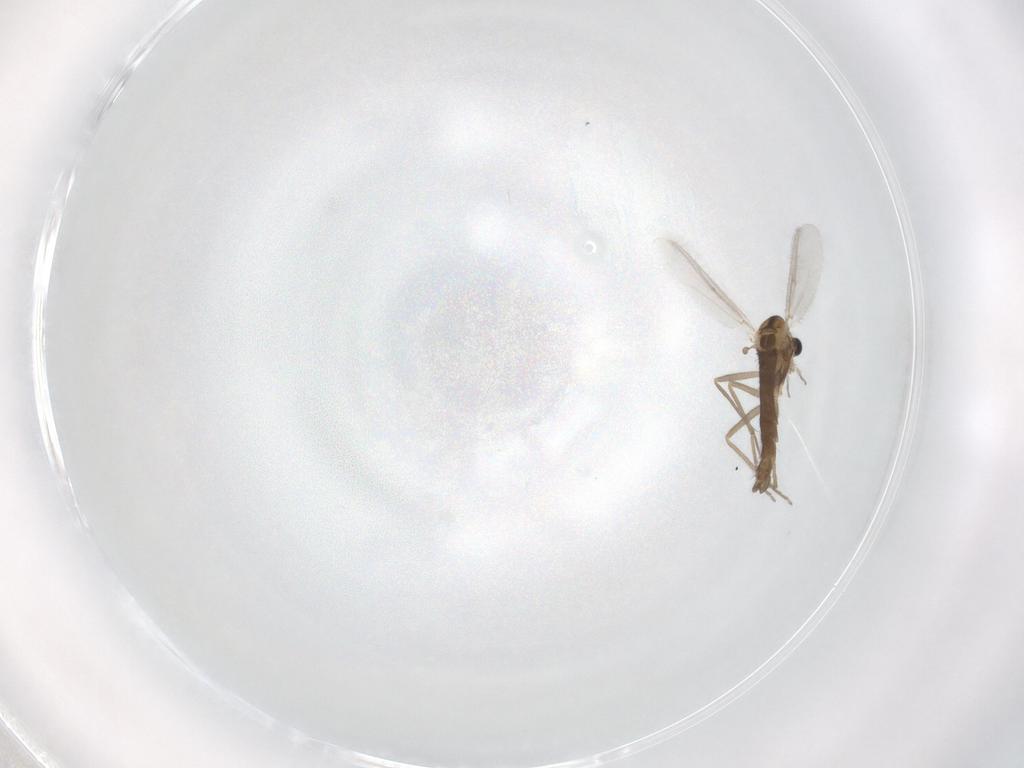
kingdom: Animalia
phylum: Arthropoda
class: Insecta
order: Diptera
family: Chironomidae
